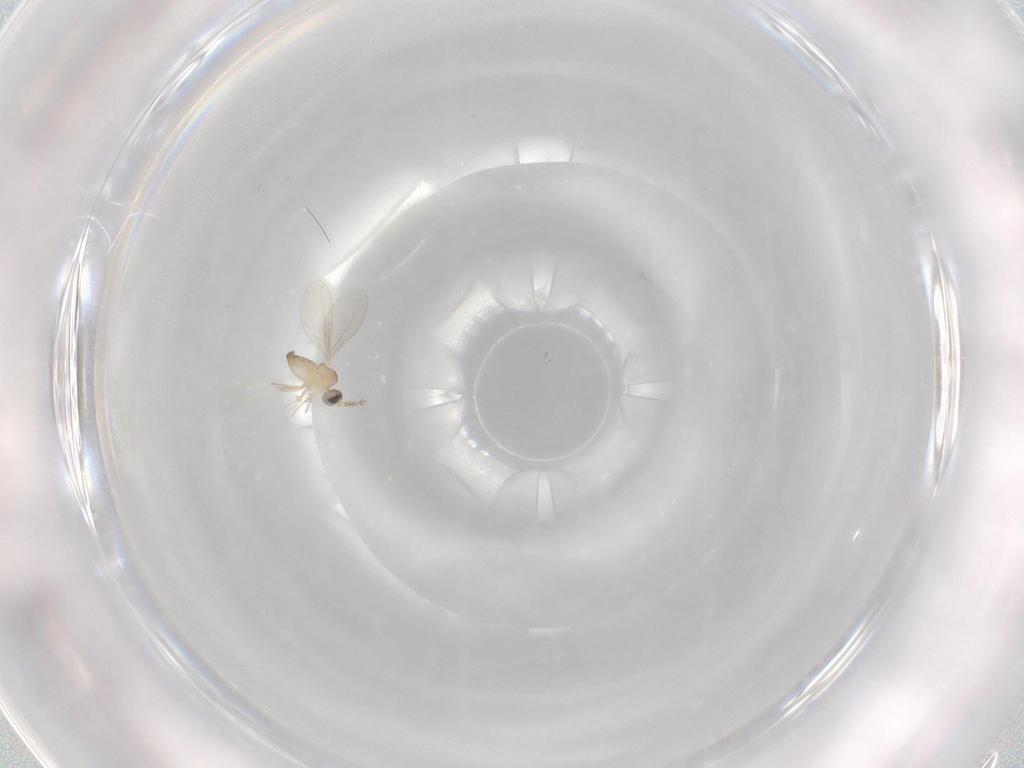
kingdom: Animalia
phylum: Arthropoda
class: Insecta
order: Diptera
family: Cecidomyiidae
